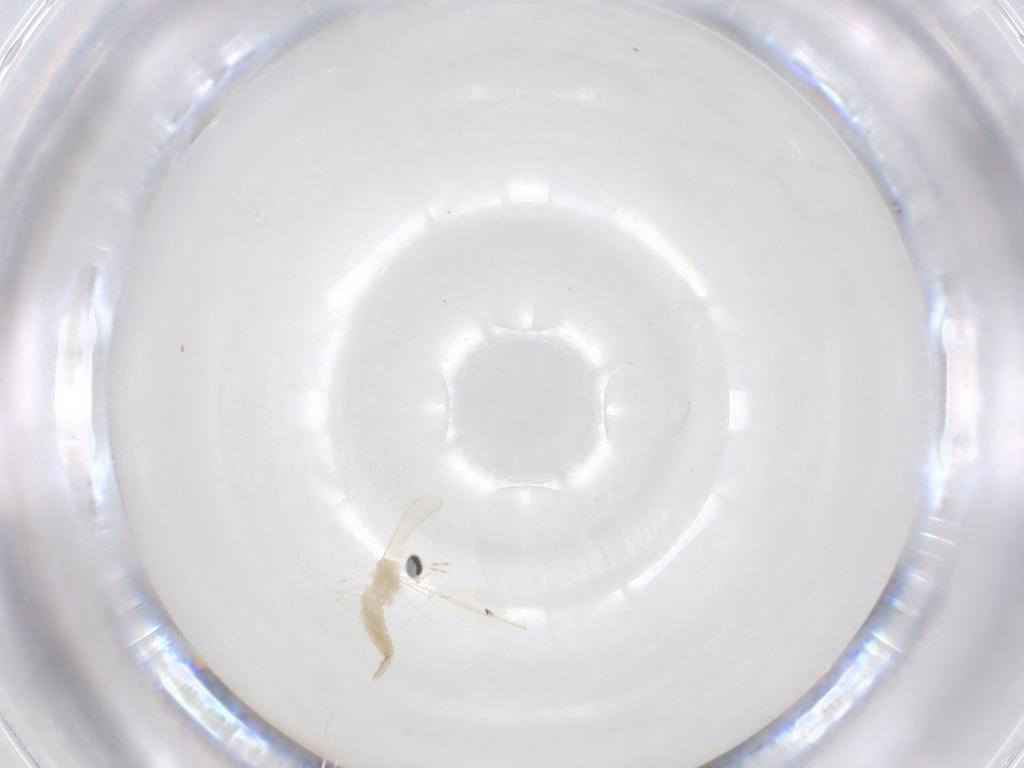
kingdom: Animalia
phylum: Arthropoda
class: Insecta
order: Diptera
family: Cecidomyiidae
